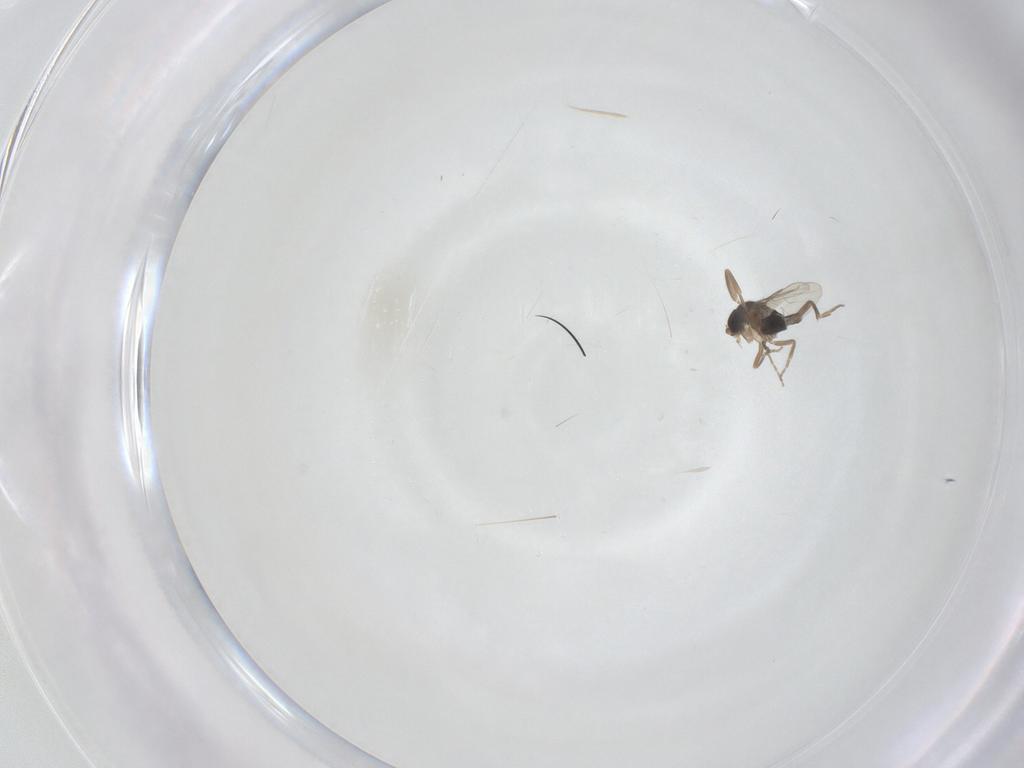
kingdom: Animalia
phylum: Arthropoda
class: Insecta
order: Diptera
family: Phoridae
